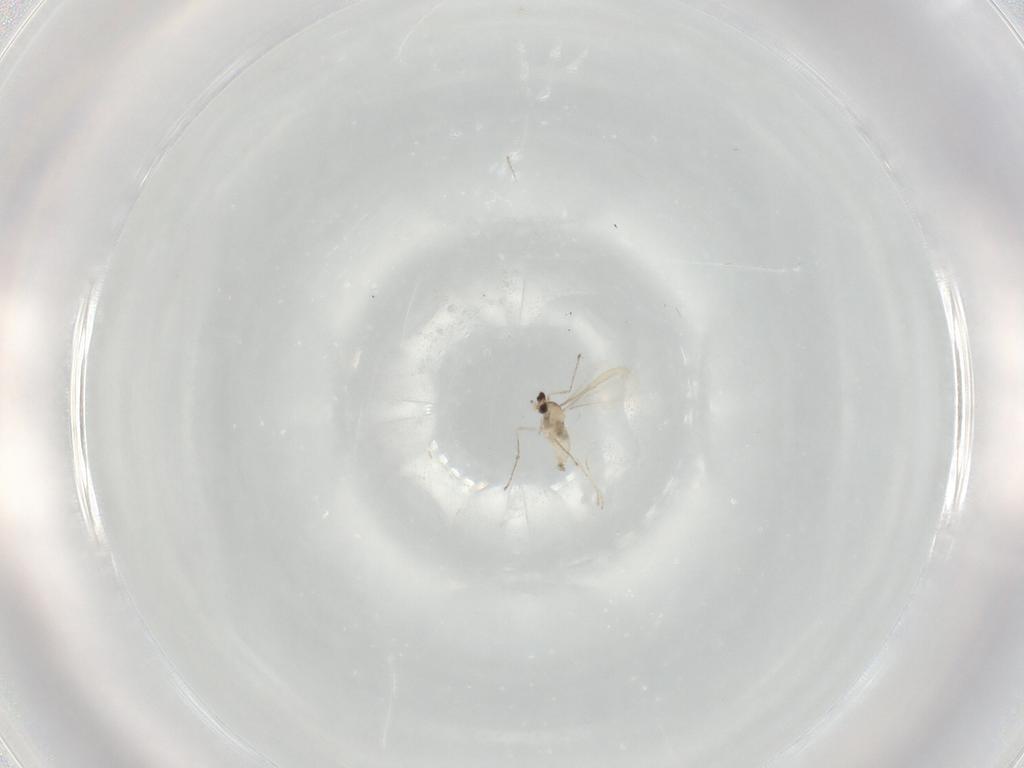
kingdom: Animalia
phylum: Arthropoda
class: Insecta
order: Diptera
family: Cecidomyiidae
